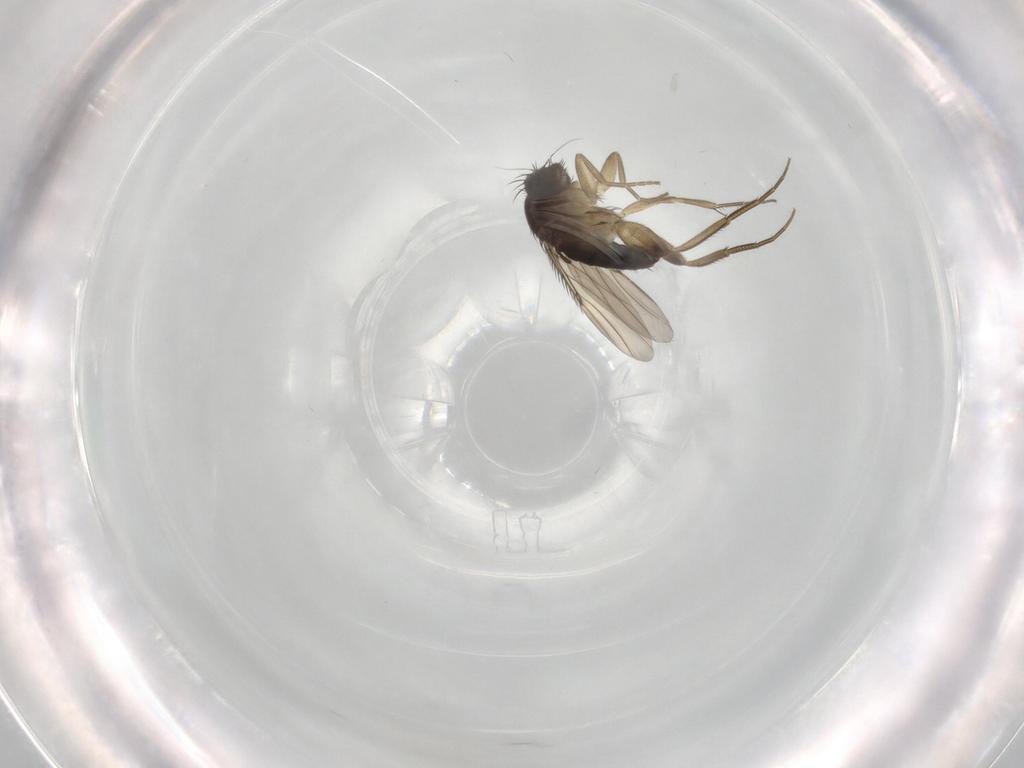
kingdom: Animalia
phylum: Arthropoda
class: Insecta
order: Diptera
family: Phoridae
